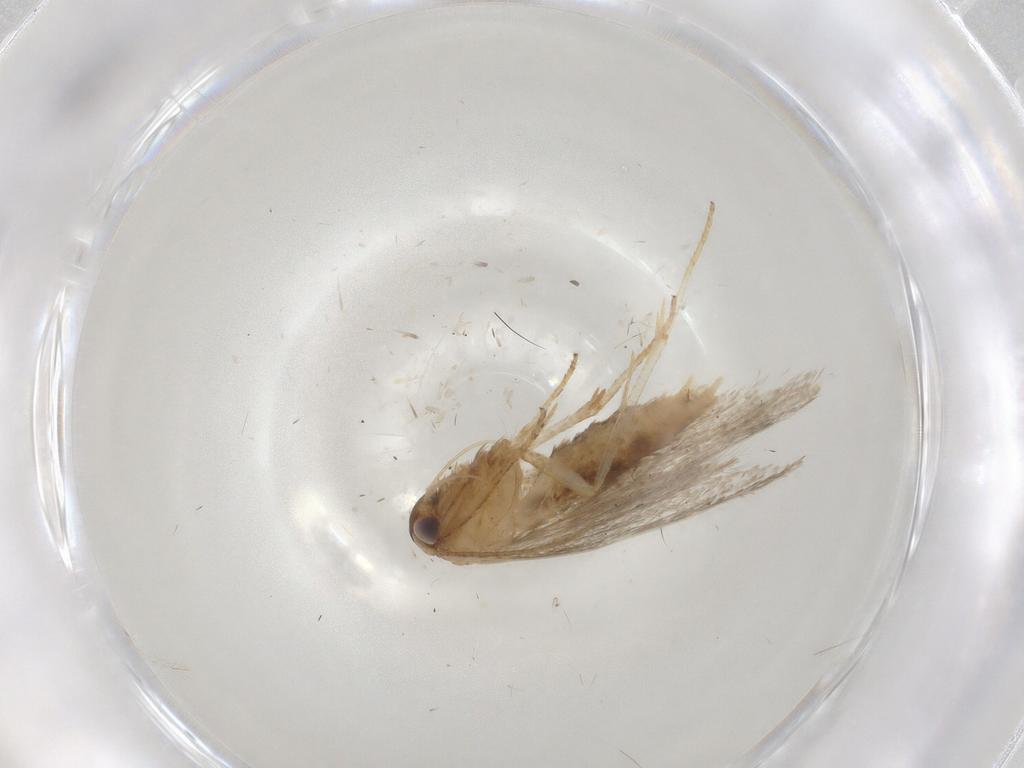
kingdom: Animalia
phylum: Arthropoda
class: Insecta
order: Lepidoptera
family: Coleophoridae
